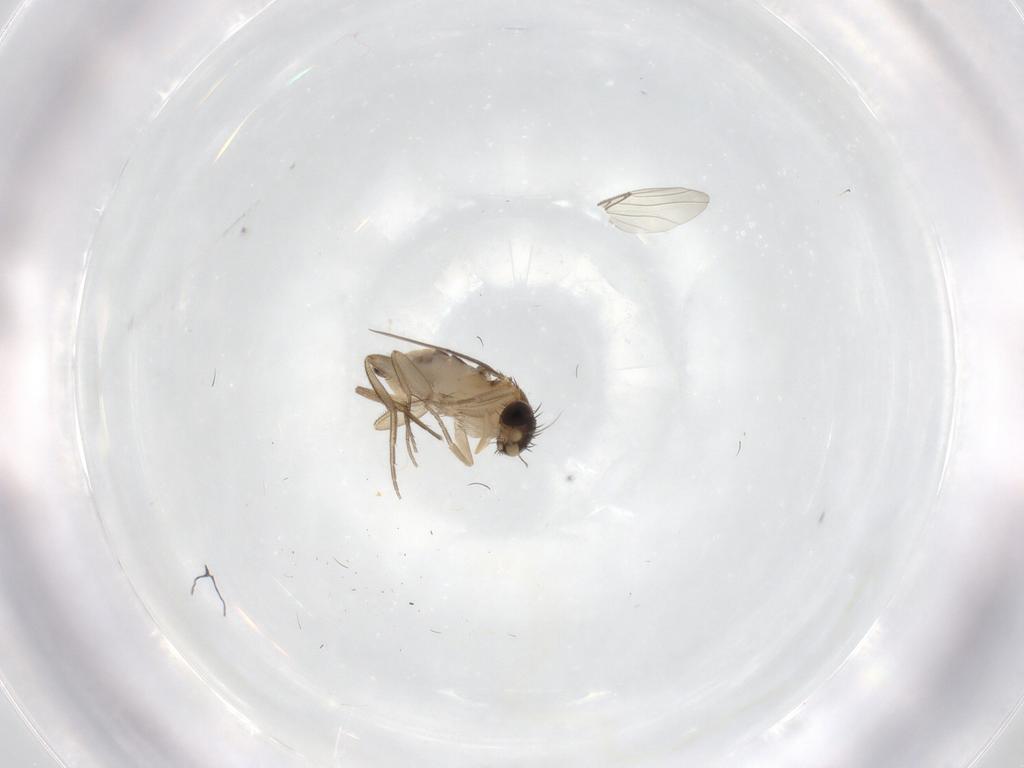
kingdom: Animalia
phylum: Arthropoda
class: Insecta
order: Diptera
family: Phoridae
